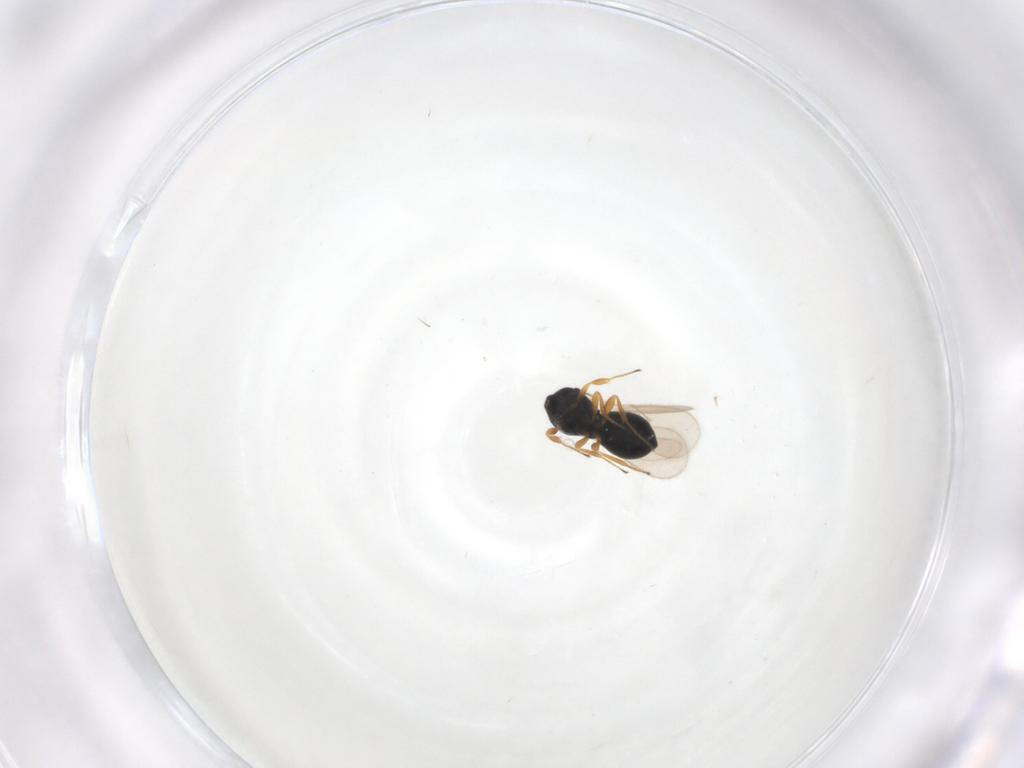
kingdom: Animalia
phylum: Arthropoda
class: Insecta
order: Hymenoptera
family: Scelionidae
